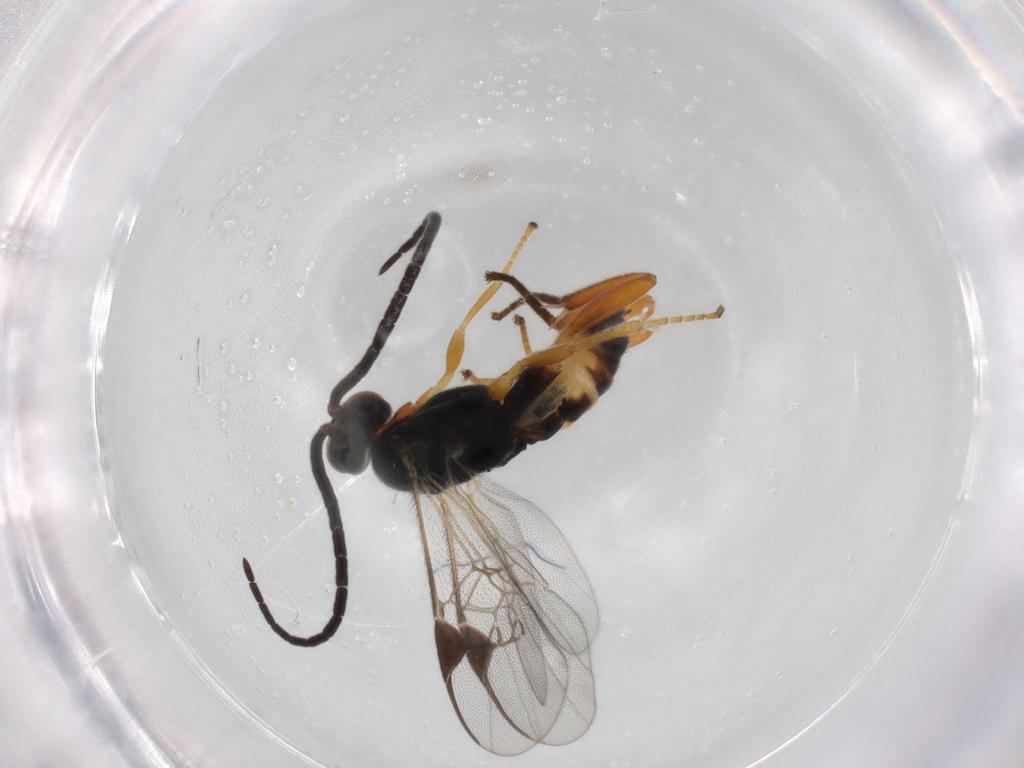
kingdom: Animalia
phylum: Arthropoda
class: Insecta
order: Hymenoptera
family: Braconidae
